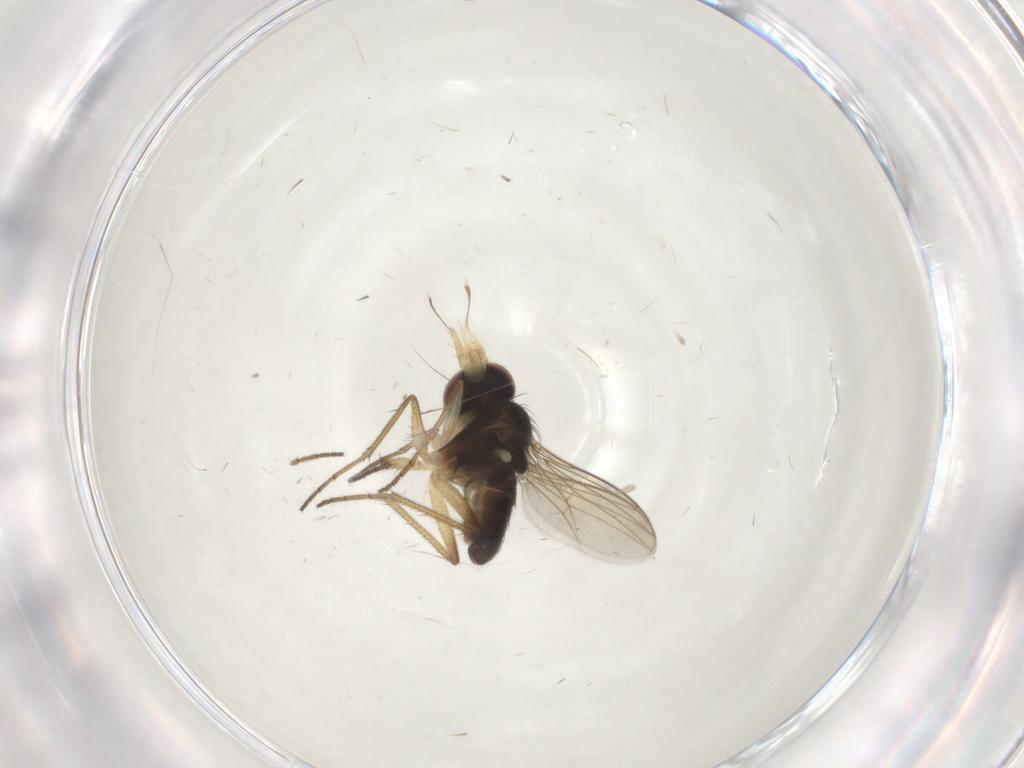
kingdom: Animalia
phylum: Arthropoda
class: Insecta
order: Diptera
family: Dolichopodidae
